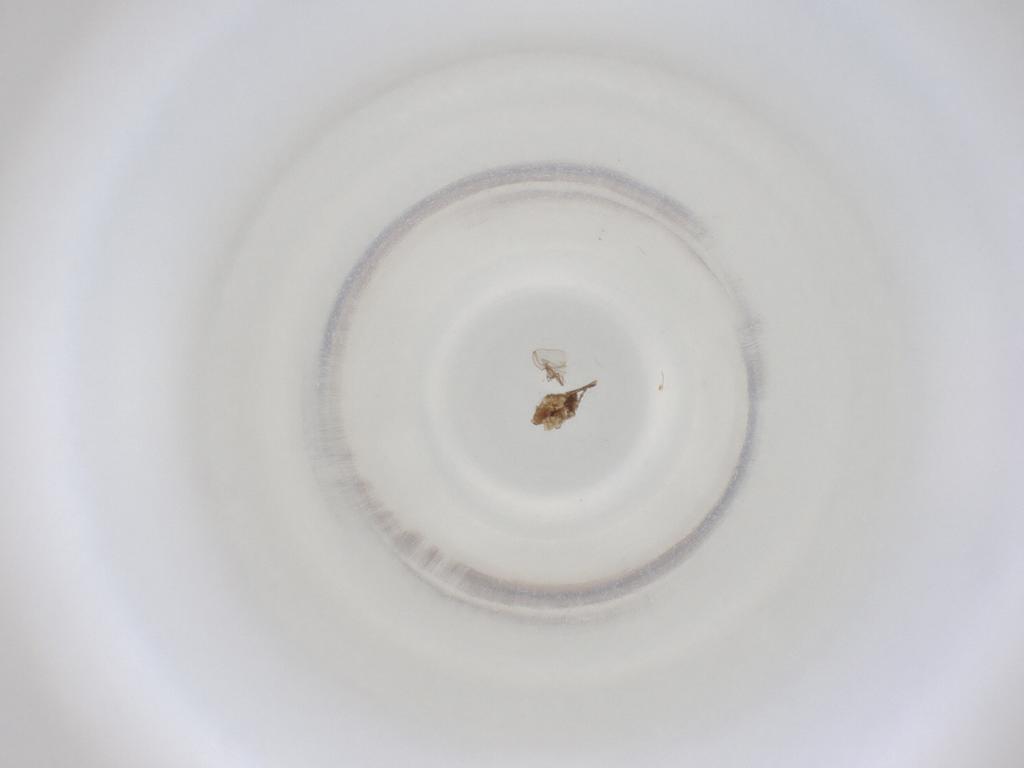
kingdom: Animalia
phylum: Arthropoda
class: Insecta
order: Diptera
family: Cecidomyiidae
